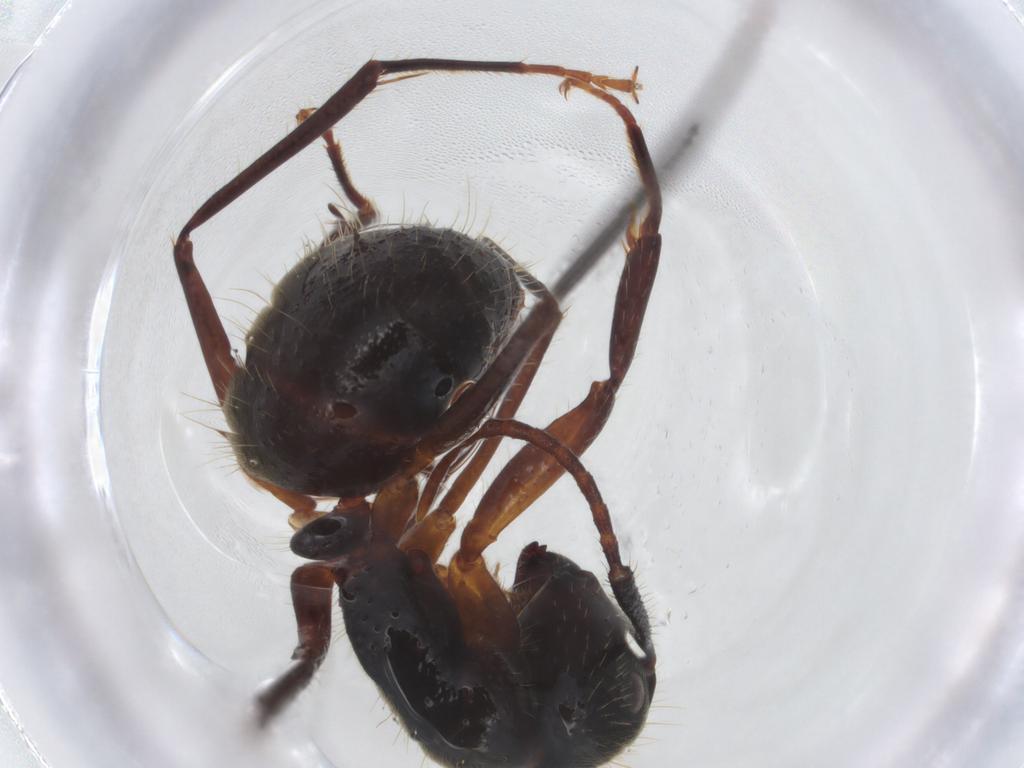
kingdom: Animalia
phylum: Arthropoda
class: Insecta
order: Hymenoptera
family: Formicidae
